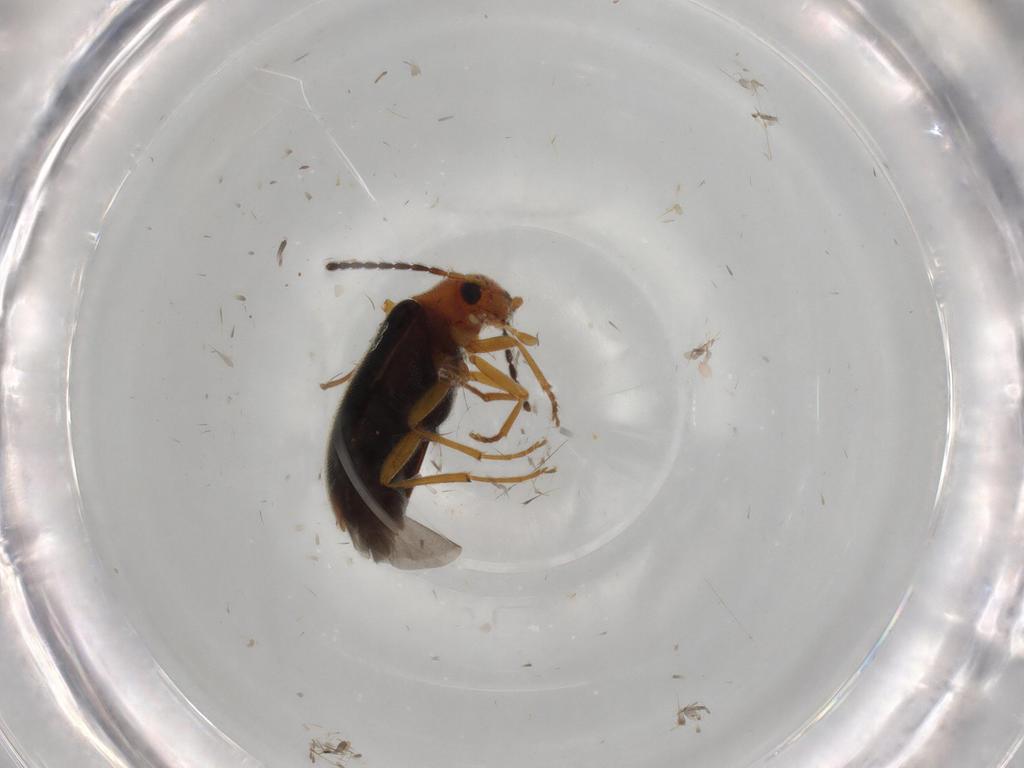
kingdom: Animalia
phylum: Arthropoda
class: Insecta
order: Coleoptera
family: Melandryidae
